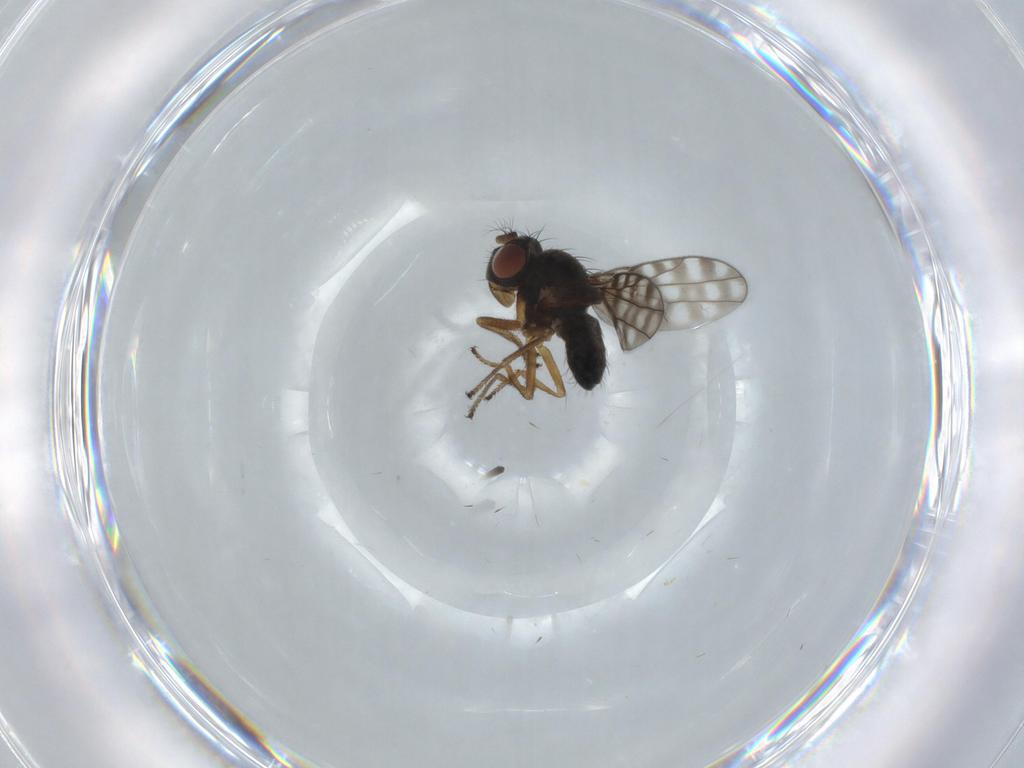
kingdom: Animalia
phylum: Arthropoda
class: Insecta
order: Diptera
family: Ephydridae
